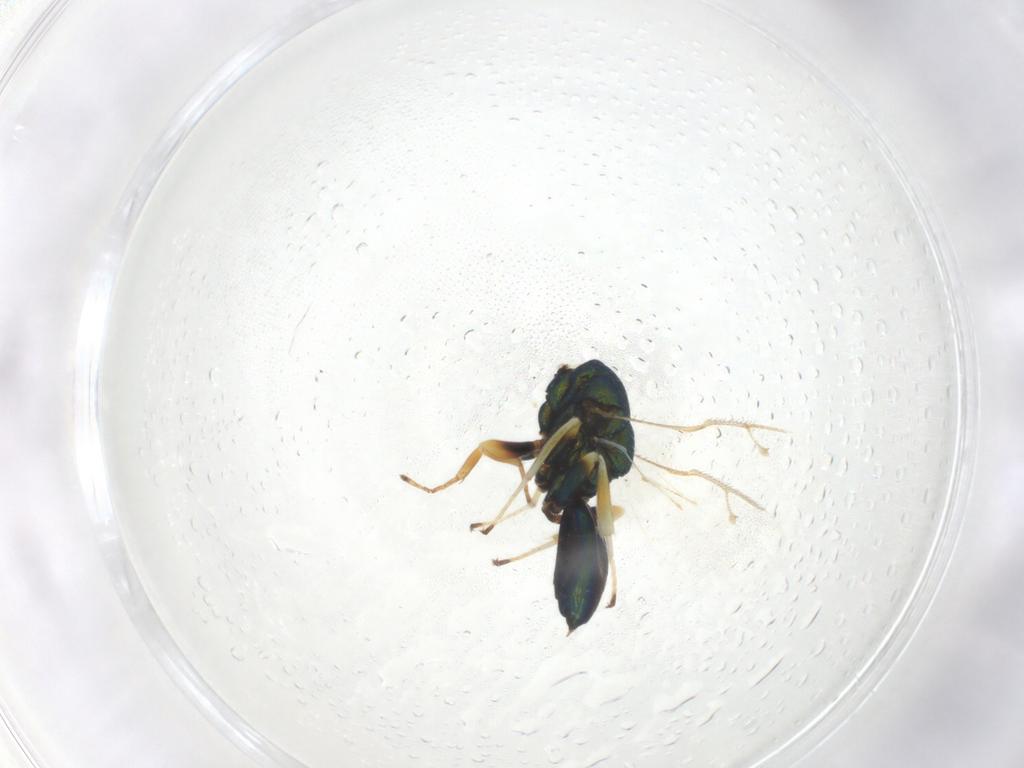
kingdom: Animalia
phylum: Arthropoda
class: Insecta
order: Hymenoptera
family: Pteromalidae
